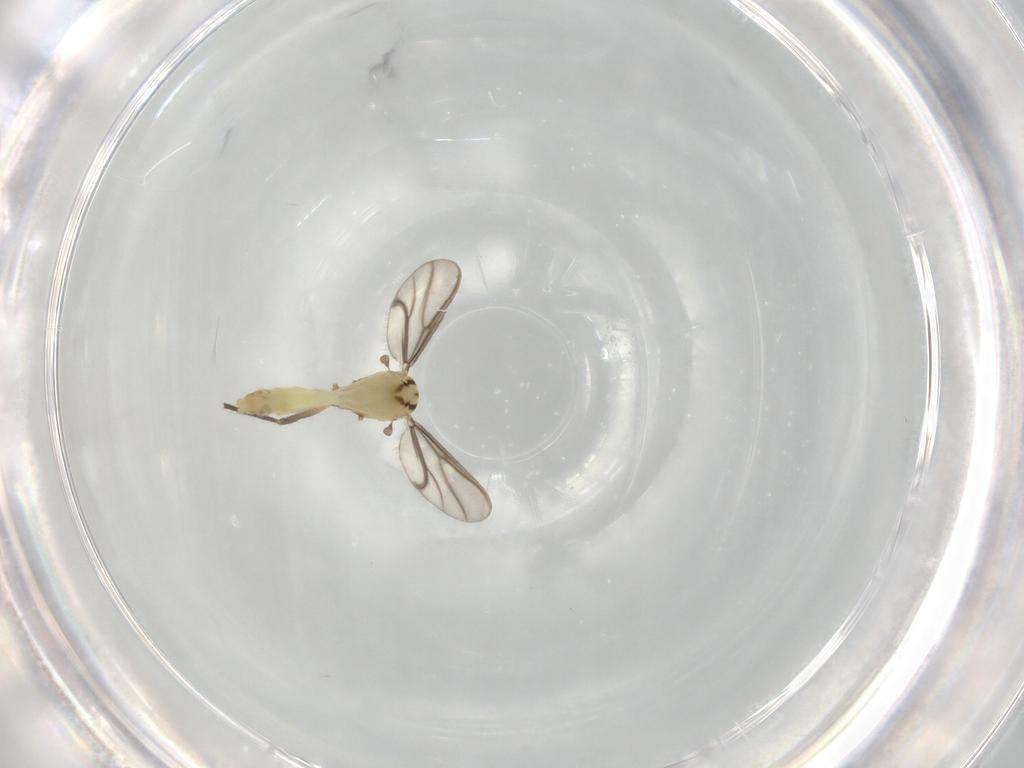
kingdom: Animalia
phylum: Arthropoda
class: Insecta
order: Diptera
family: Chironomidae
